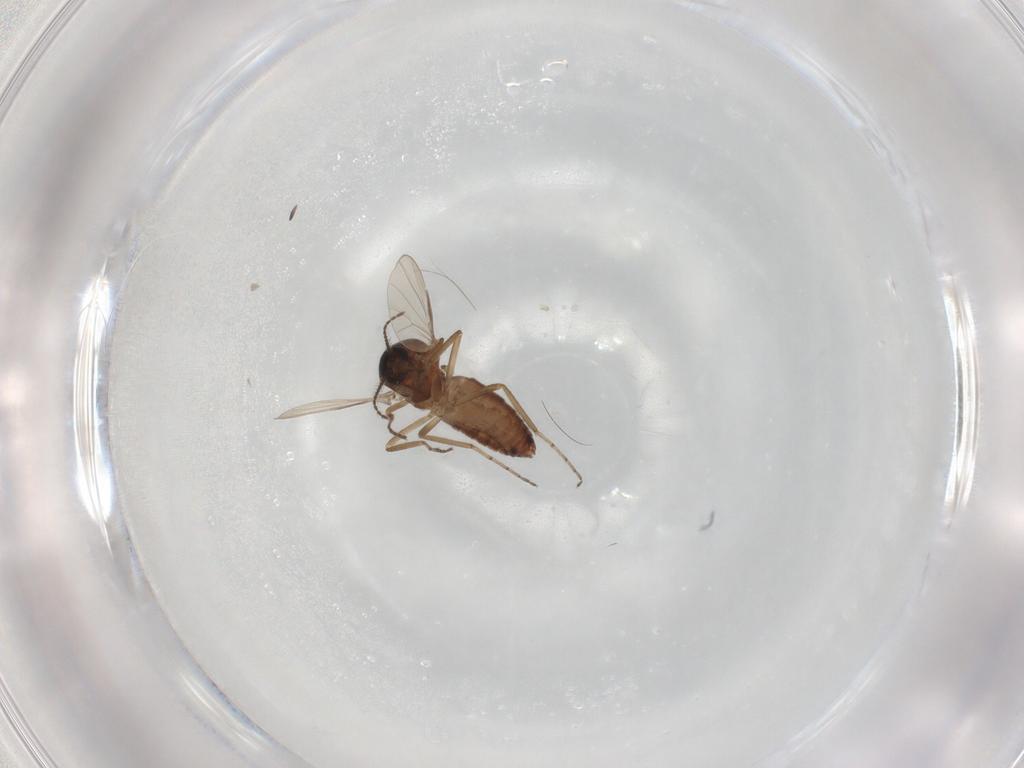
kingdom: Animalia
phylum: Arthropoda
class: Insecta
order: Diptera
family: Ceratopogonidae
